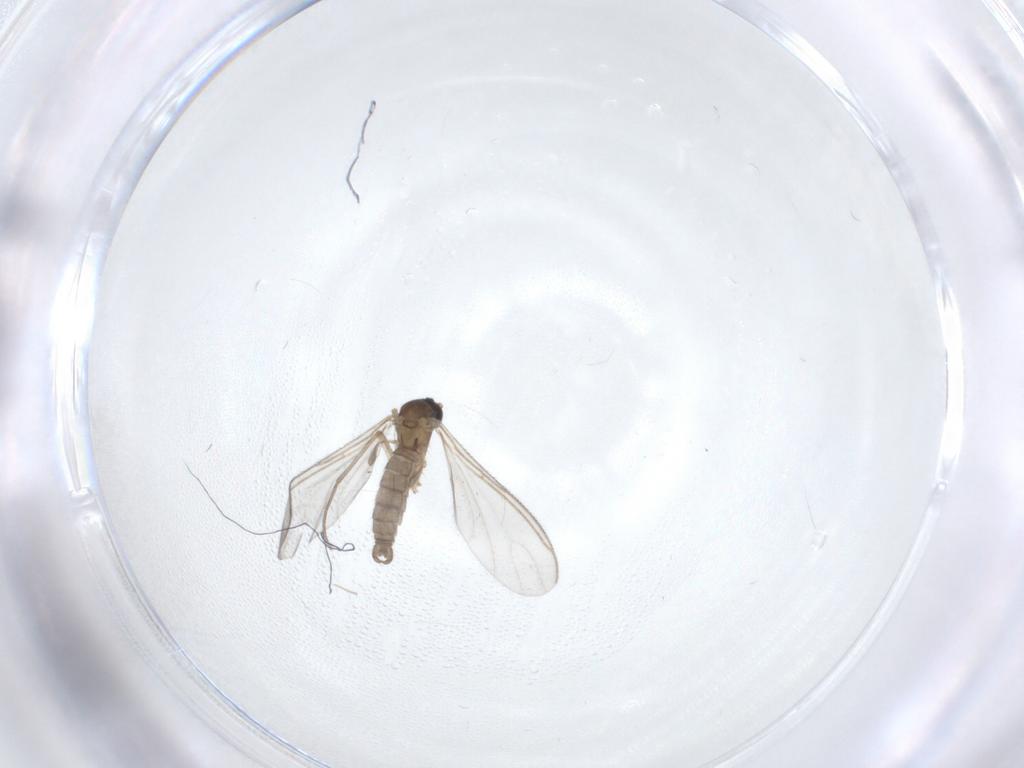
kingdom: Animalia
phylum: Arthropoda
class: Insecta
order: Diptera
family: Sciaridae
